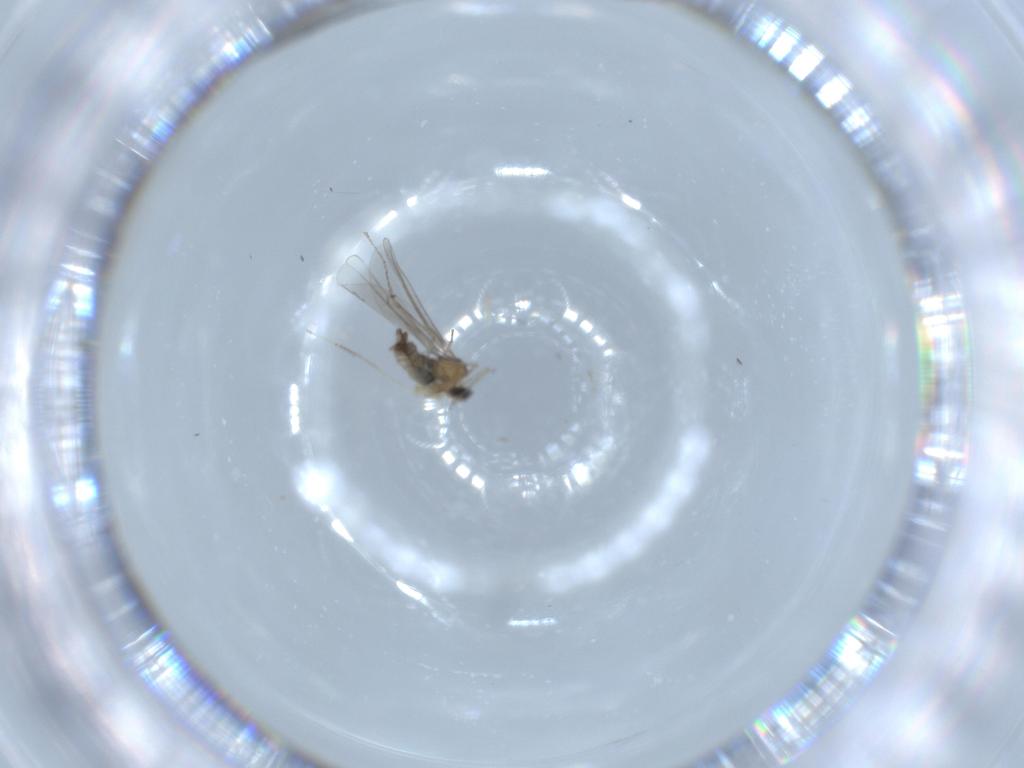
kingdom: Animalia
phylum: Arthropoda
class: Insecta
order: Diptera
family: Cecidomyiidae
